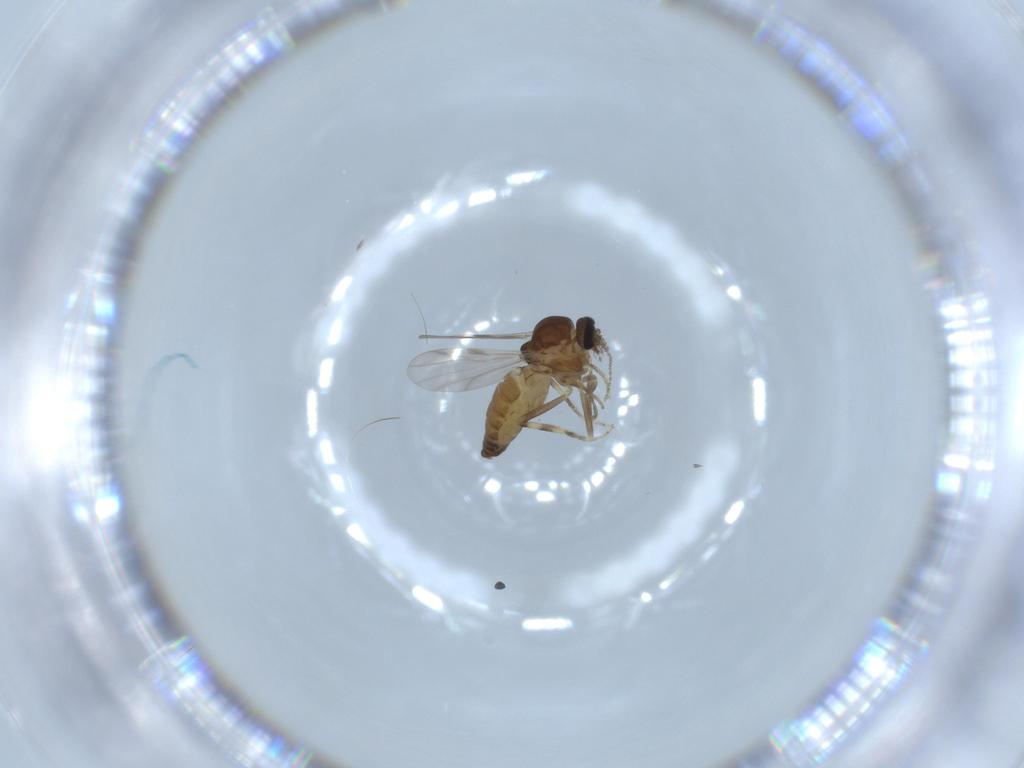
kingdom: Animalia
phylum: Arthropoda
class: Insecta
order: Diptera
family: Ceratopogonidae
